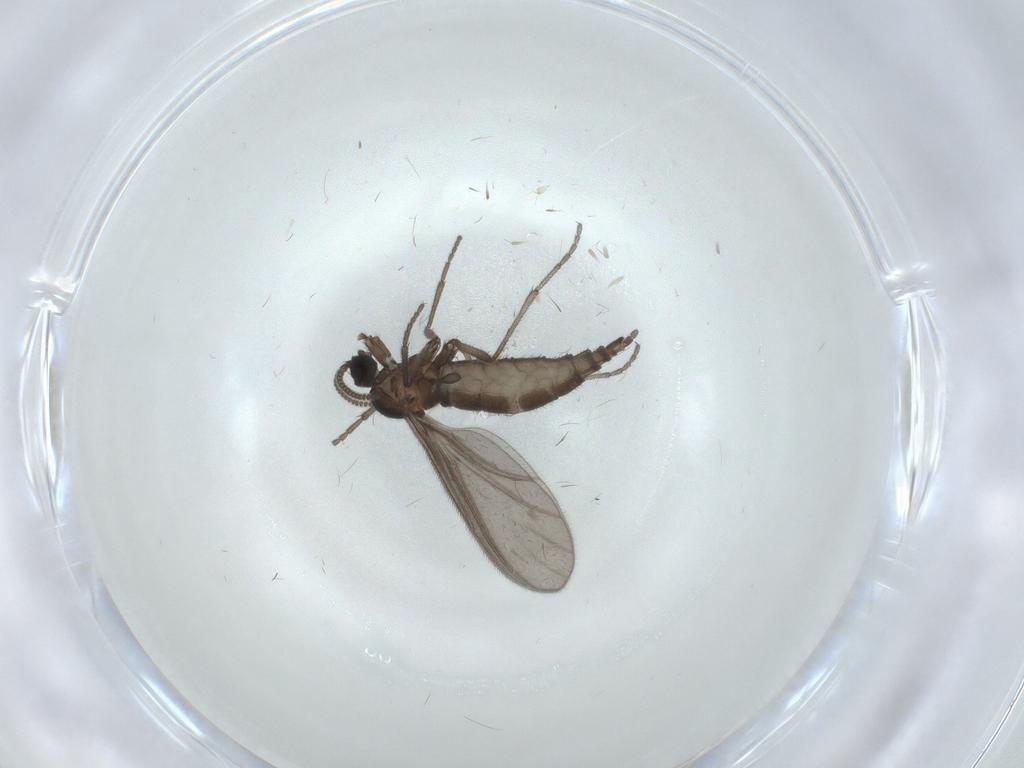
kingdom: Animalia
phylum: Arthropoda
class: Insecta
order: Diptera
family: Sciaridae
